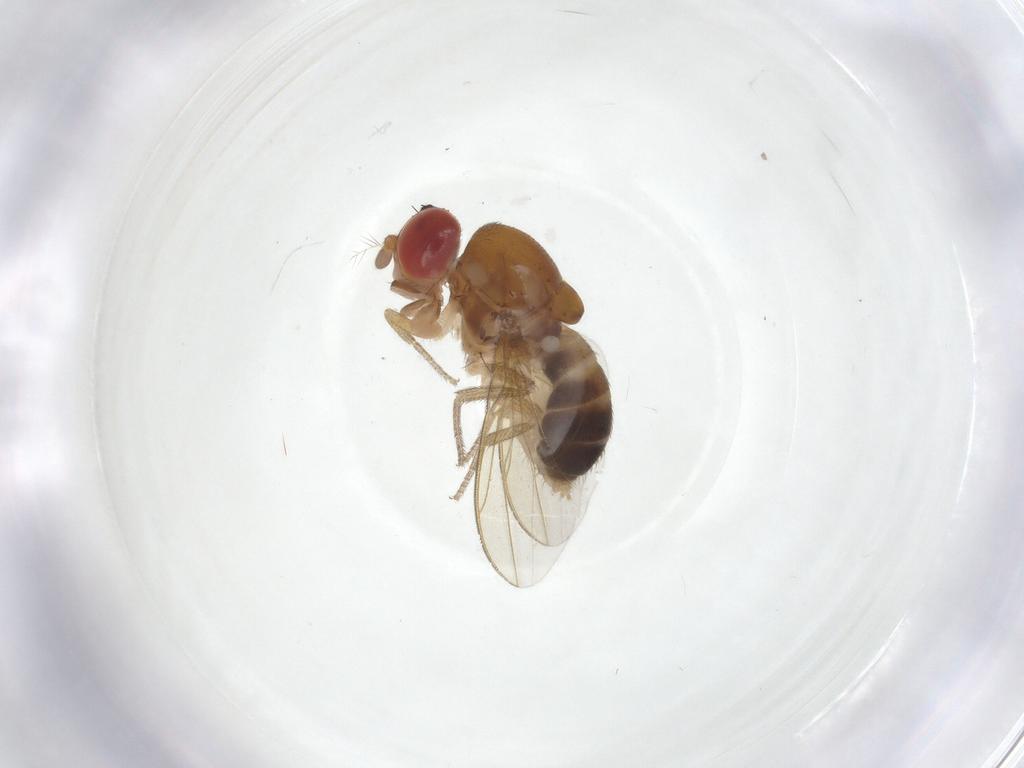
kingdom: Animalia
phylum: Arthropoda
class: Insecta
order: Diptera
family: Drosophilidae
